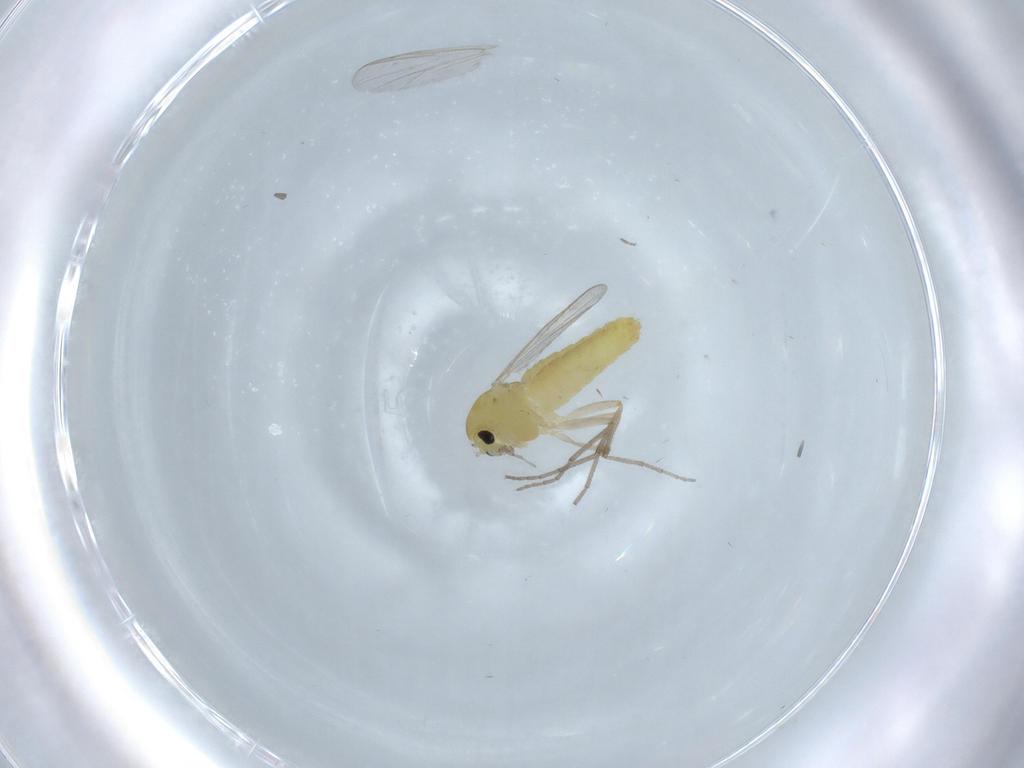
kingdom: Animalia
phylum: Arthropoda
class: Insecta
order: Diptera
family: Chironomidae
